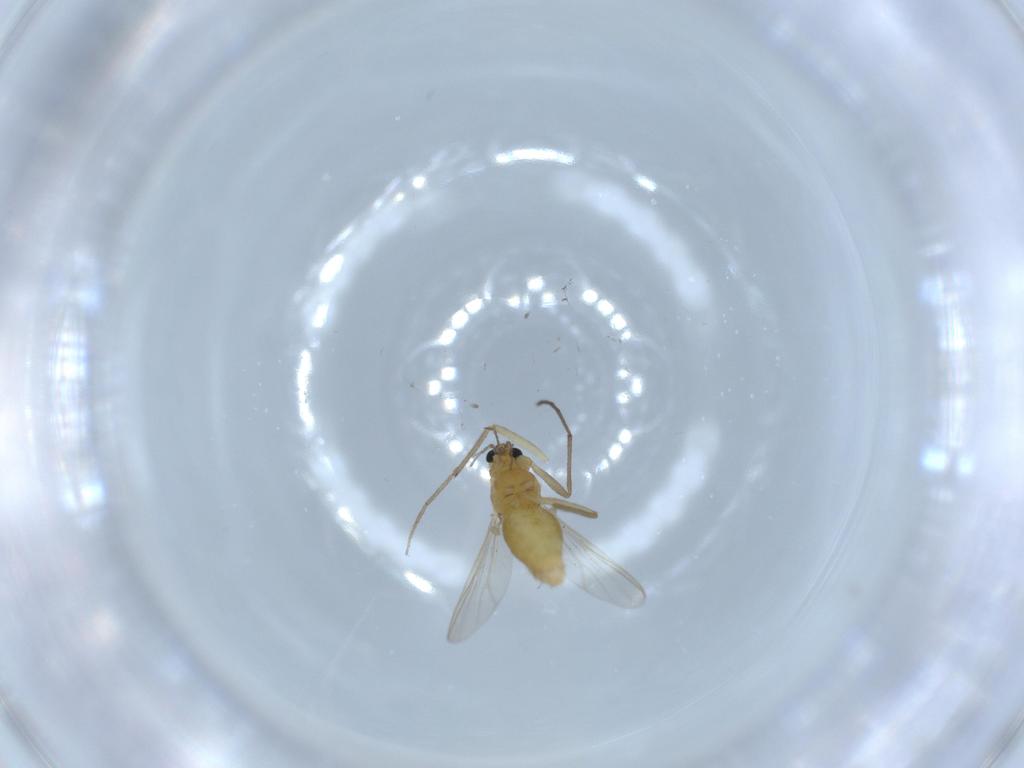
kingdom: Animalia
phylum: Arthropoda
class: Insecta
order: Diptera
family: Chironomidae
